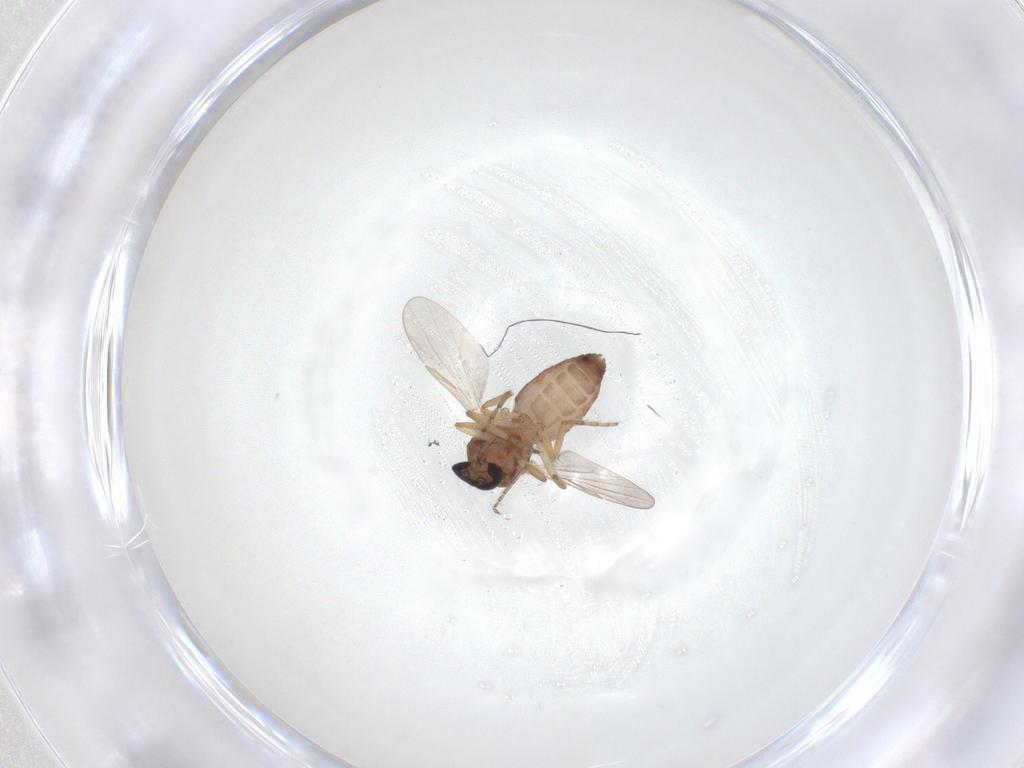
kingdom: Animalia
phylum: Arthropoda
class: Insecta
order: Diptera
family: Ceratopogonidae
